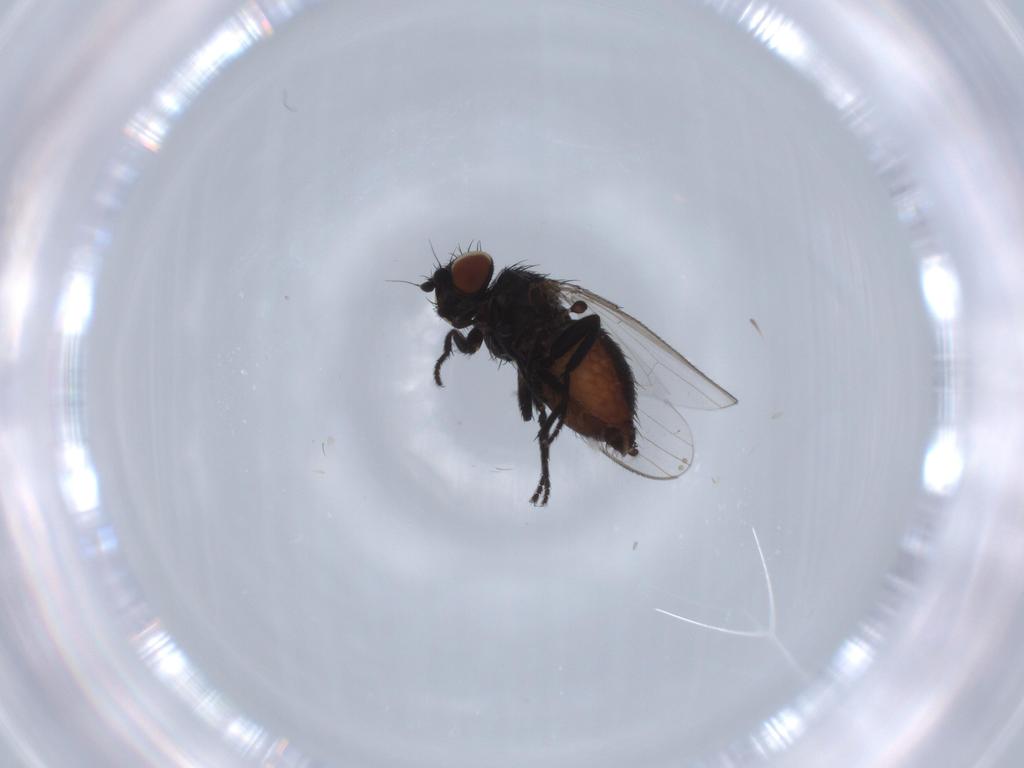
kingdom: Animalia
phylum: Arthropoda
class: Insecta
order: Diptera
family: Milichiidae
